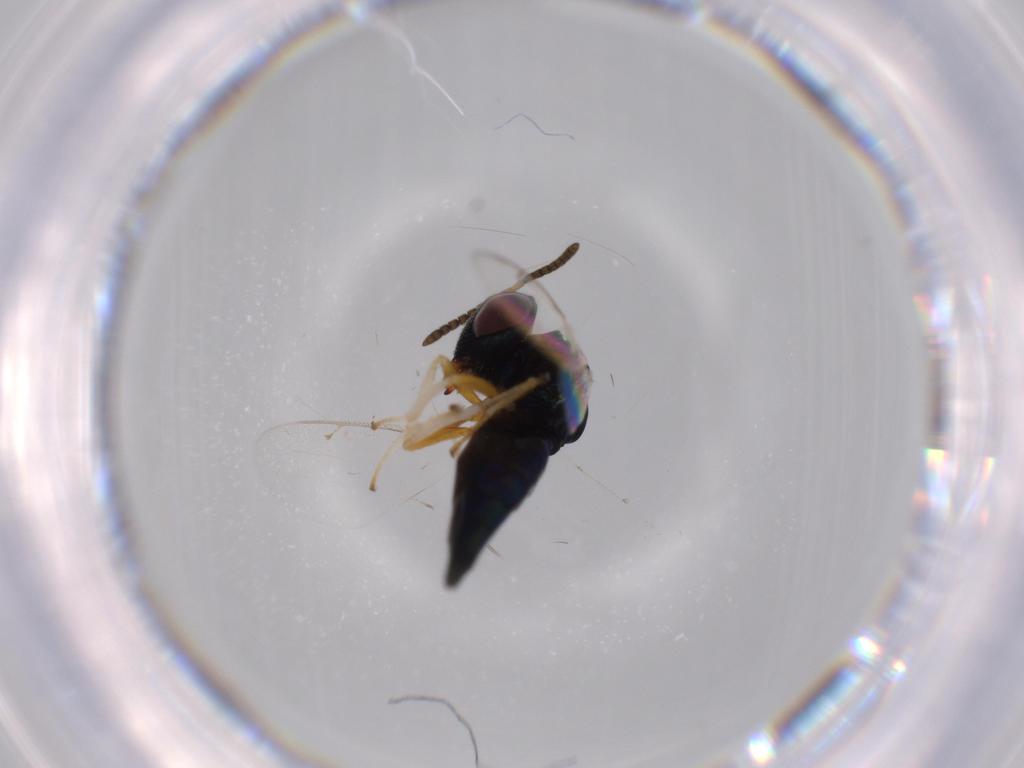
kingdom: Animalia
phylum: Arthropoda
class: Insecta
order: Hymenoptera
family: Pteromalidae
